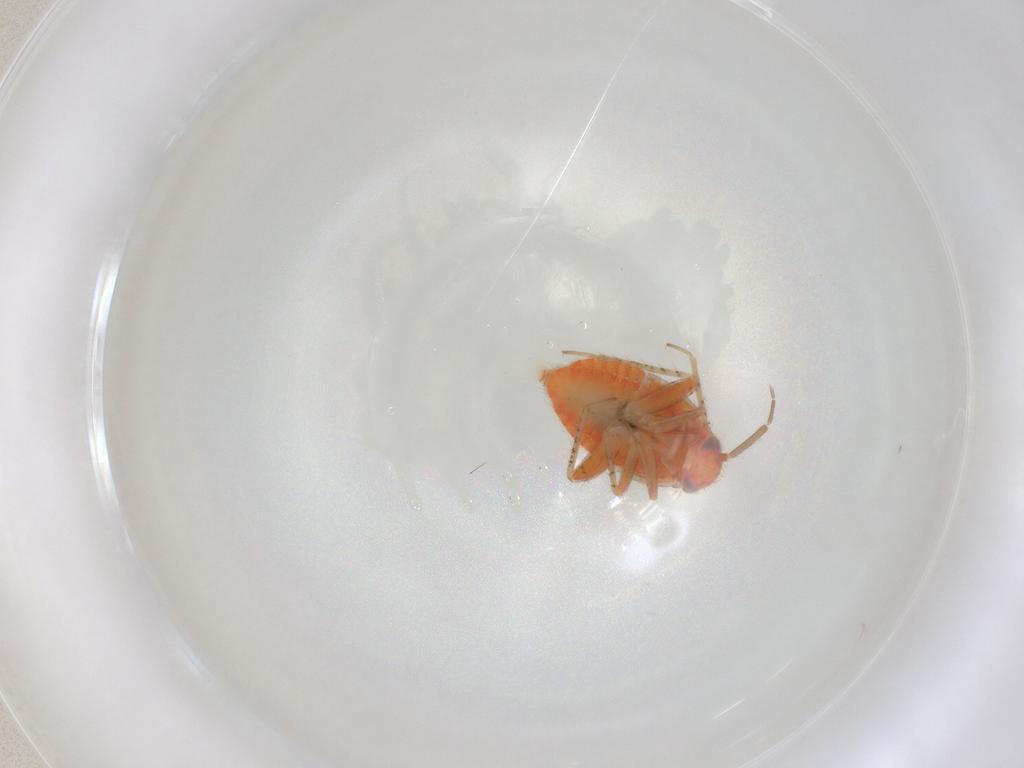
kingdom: Animalia
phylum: Arthropoda
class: Insecta
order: Hemiptera
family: Miridae
